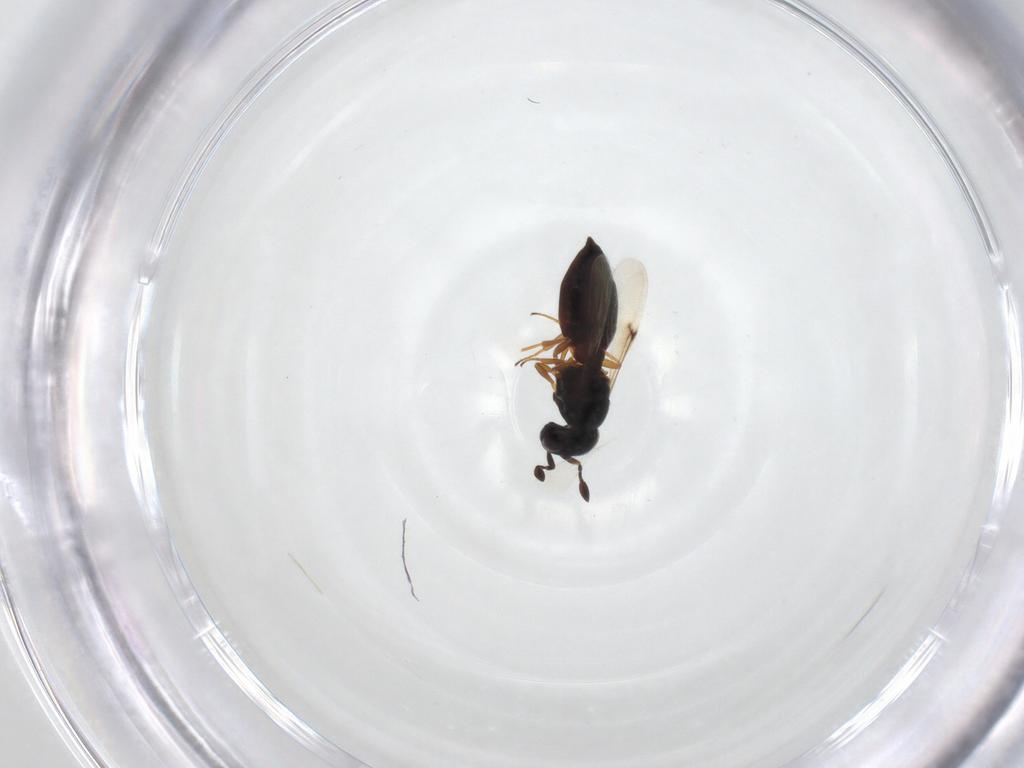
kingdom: Animalia
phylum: Arthropoda
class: Insecta
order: Hymenoptera
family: Scelionidae
